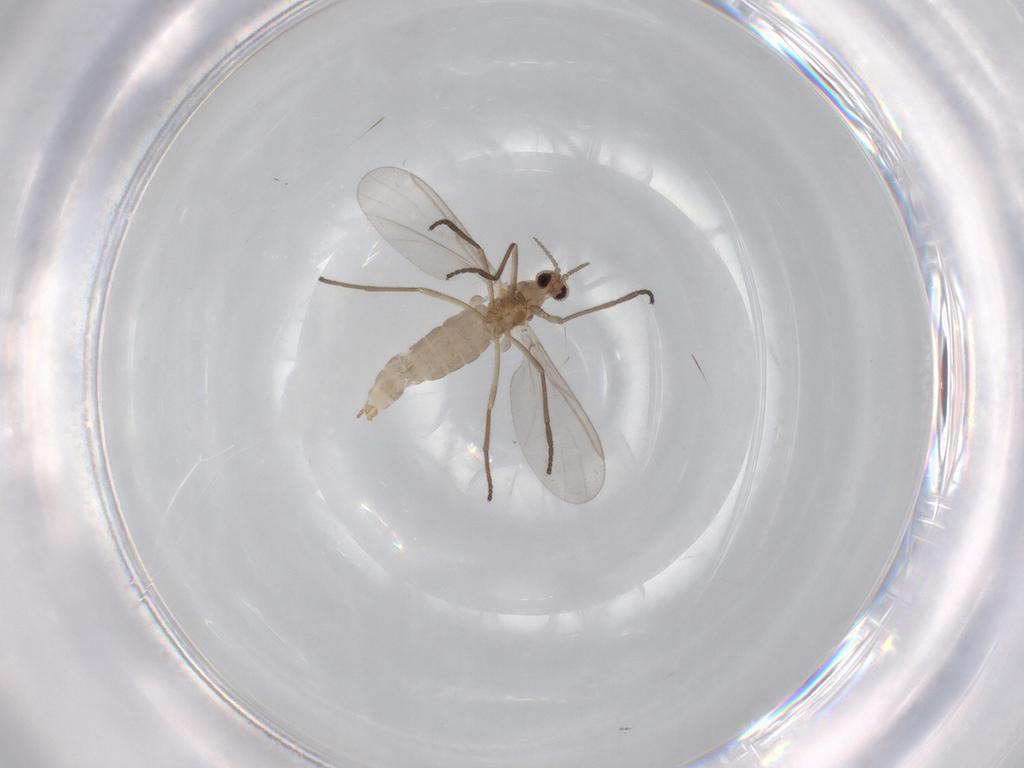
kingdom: Animalia
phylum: Arthropoda
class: Insecta
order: Diptera
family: Cecidomyiidae
